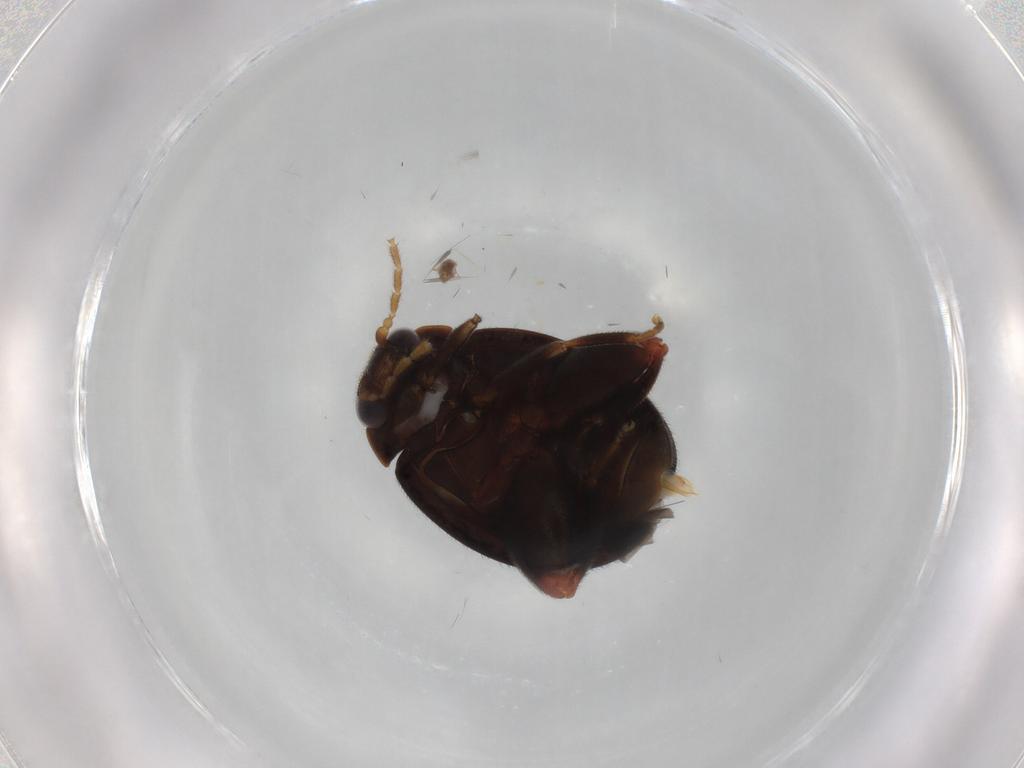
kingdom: Animalia
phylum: Arthropoda
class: Insecta
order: Coleoptera
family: Scirtidae
